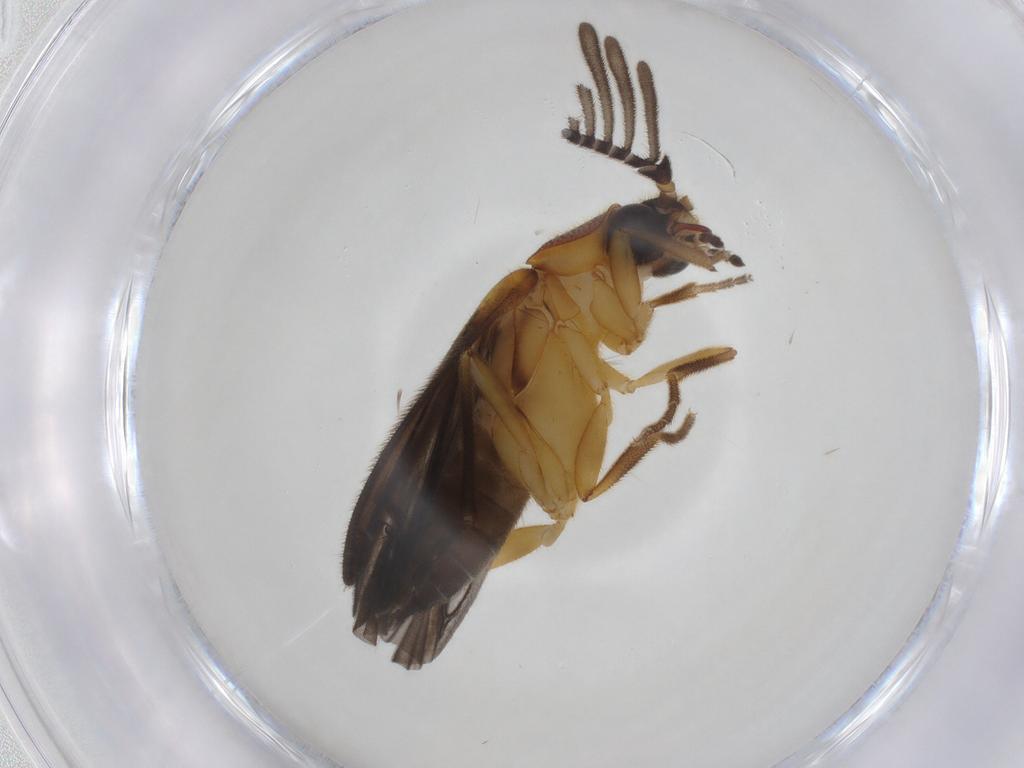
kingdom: Animalia
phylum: Arthropoda
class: Insecta
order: Coleoptera
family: Lampyridae
